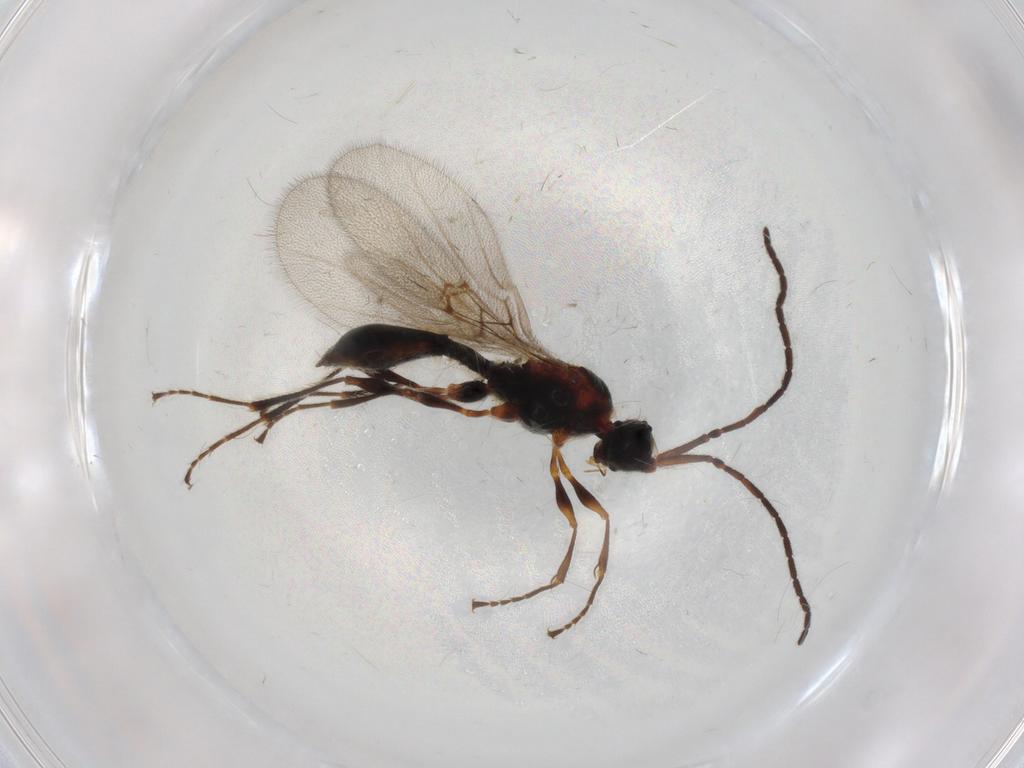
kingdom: Animalia
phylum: Arthropoda
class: Insecta
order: Hymenoptera
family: Diapriidae
